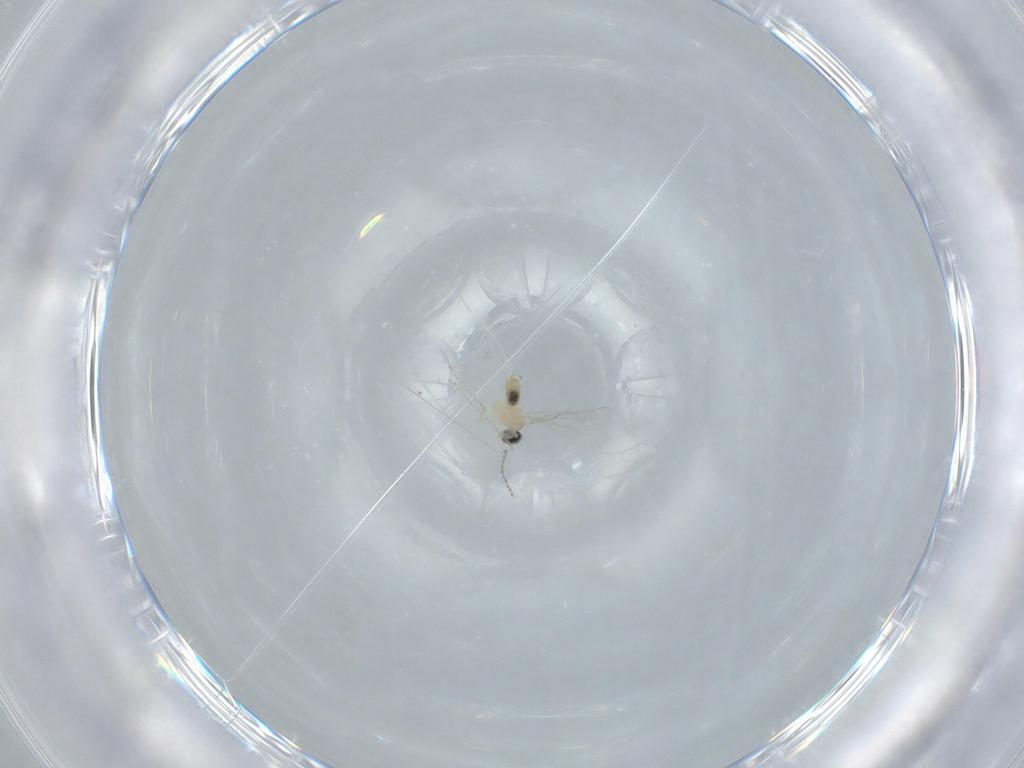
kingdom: Animalia
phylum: Arthropoda
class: Insecta
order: Diptera
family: Cecidomyiidae
